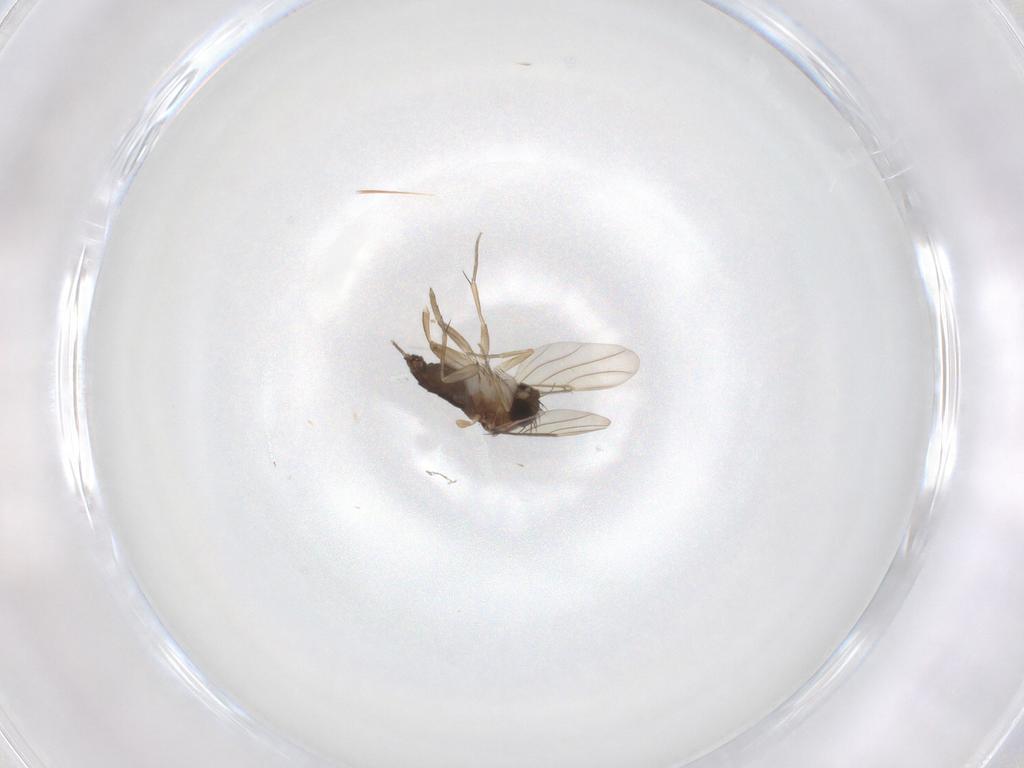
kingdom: Animalia
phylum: Arthropoda
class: Insecta
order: Diptera
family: Phoridae
